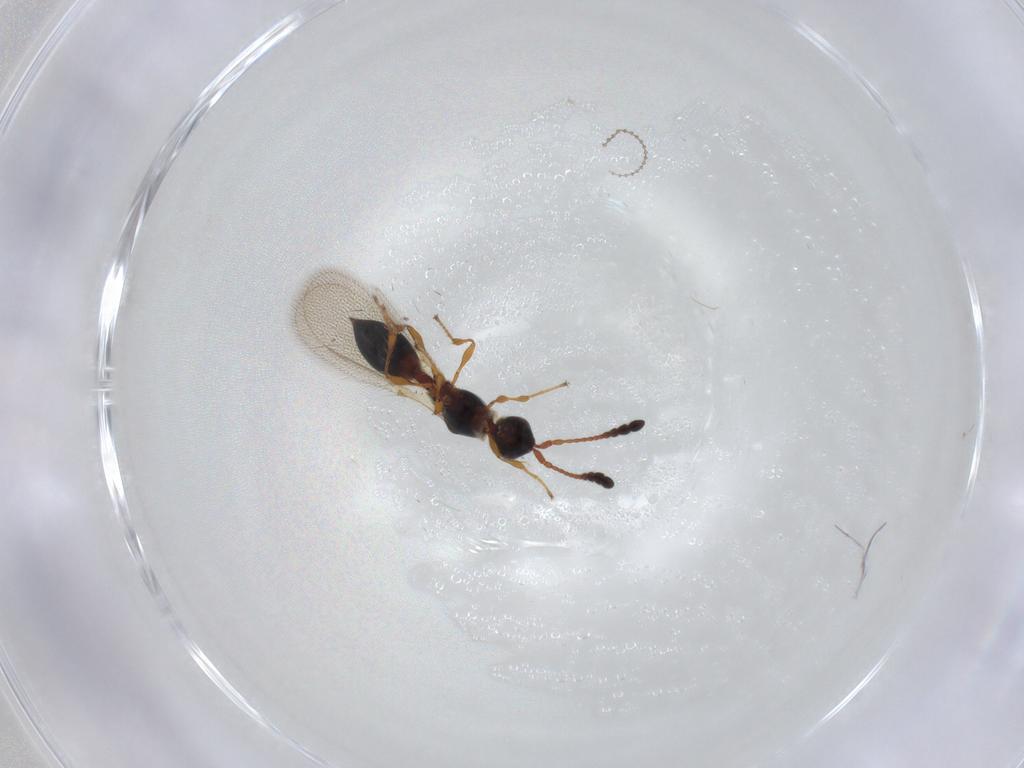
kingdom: Animalia
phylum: Arthropoda
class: Insecta
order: Hymenoptera
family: Diapriidae
